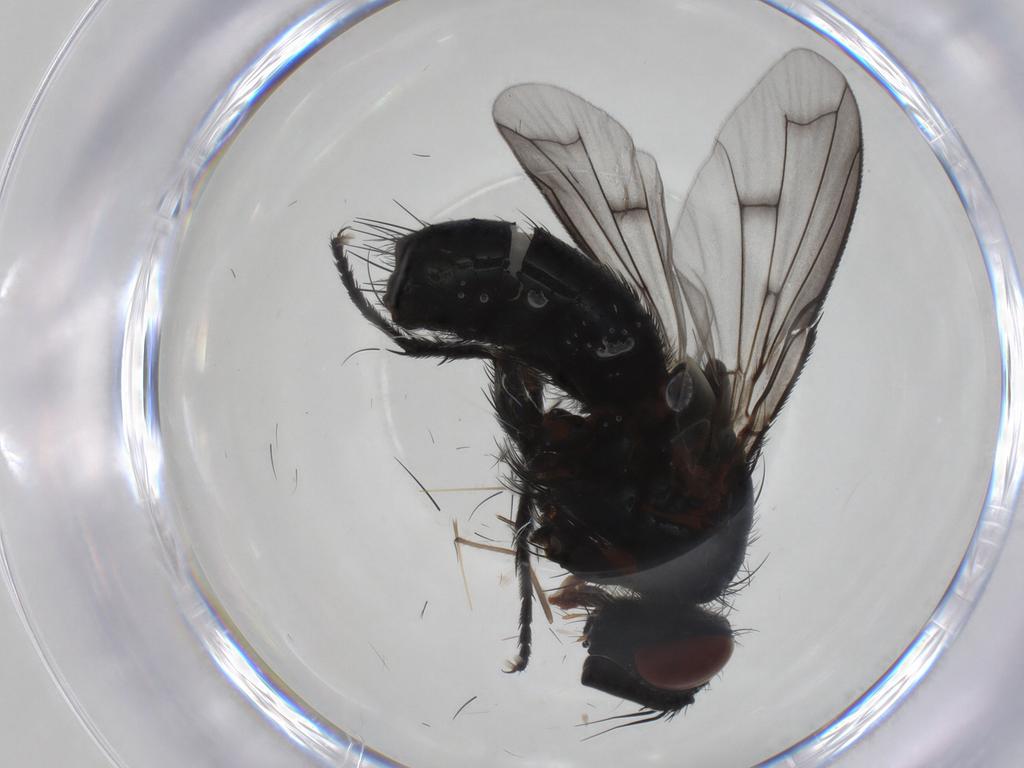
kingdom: Animalia
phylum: Arthropoda
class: Insecta
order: Diptera
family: Tachinidae
